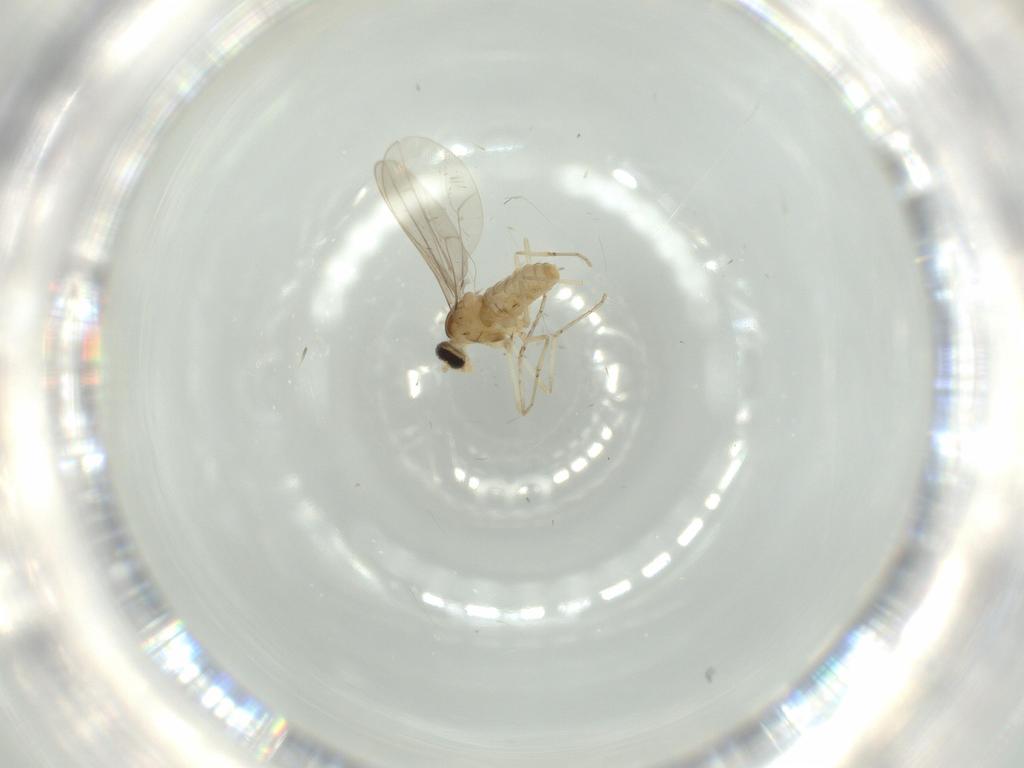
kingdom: Animalia
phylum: Arthropoda
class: Insecta
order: Diptera
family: Cecidomyiidae
